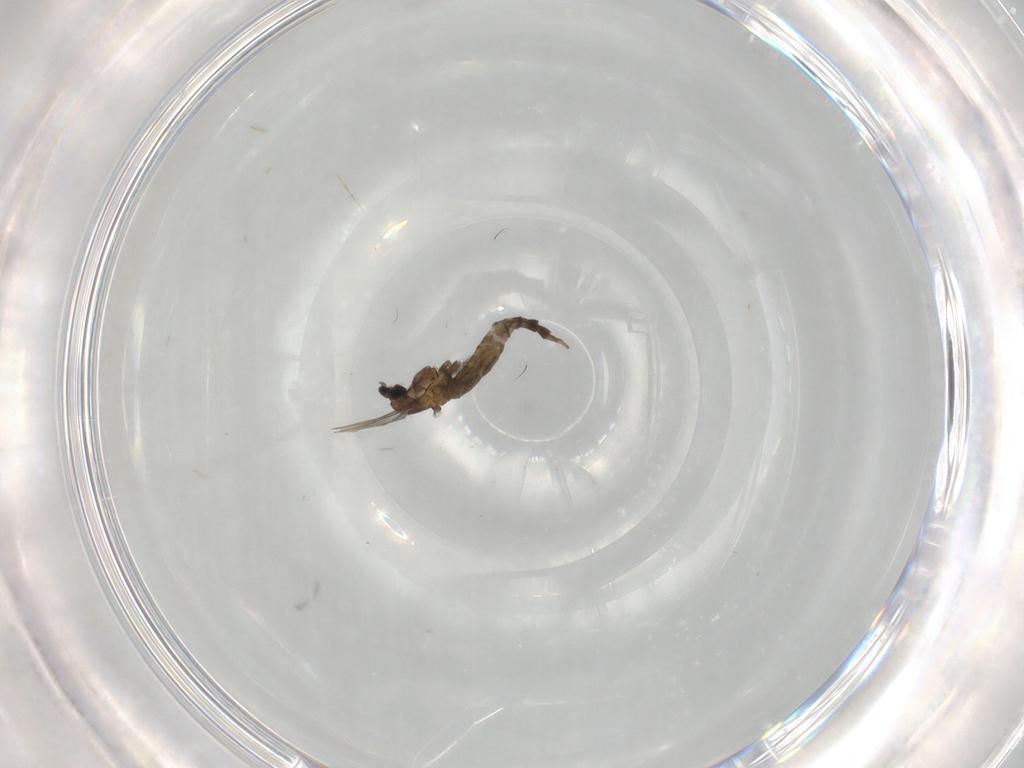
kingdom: Animalia
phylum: Arthropoda
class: Insecta
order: Diptera
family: Cecidomyiidae
